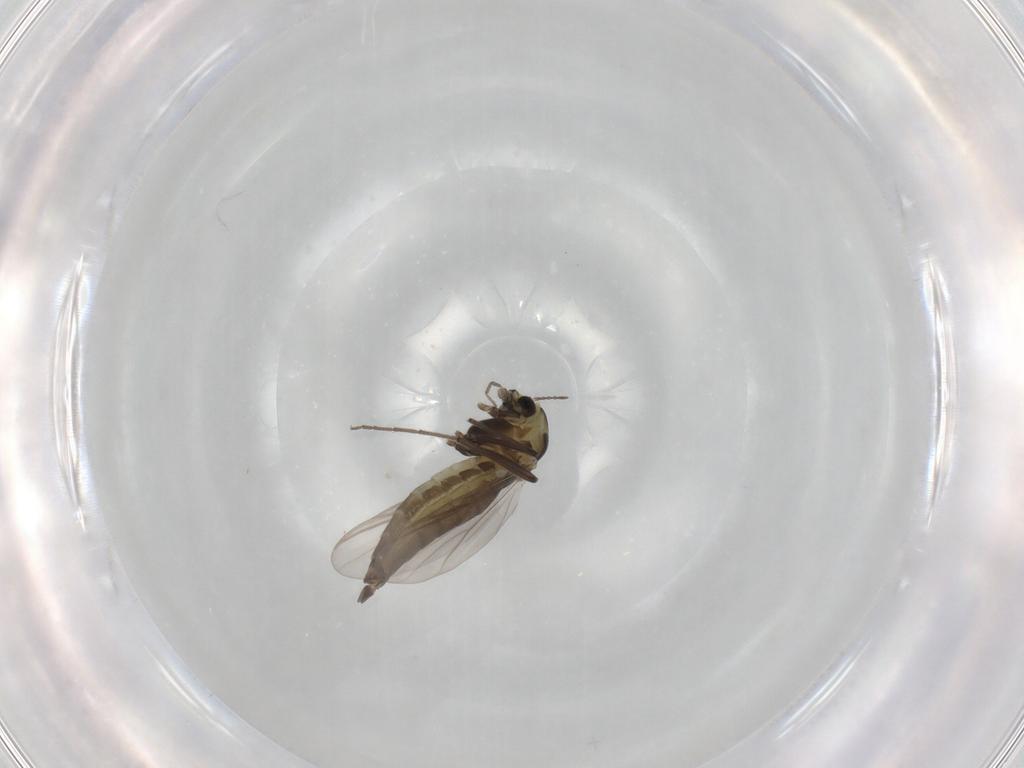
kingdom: Animalia
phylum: Arthropoda
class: Insecta
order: Diptera
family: Chironomidae
